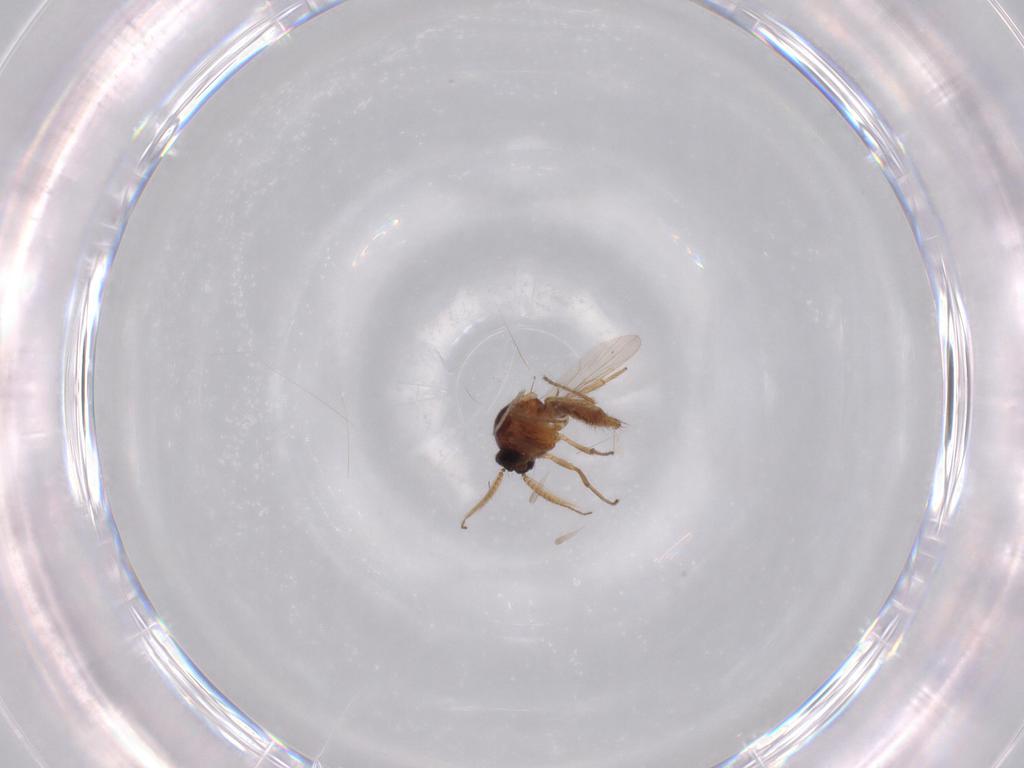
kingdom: Animalia
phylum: Arthropoda
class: Insecta
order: Diptera
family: Ceratopogonidae
